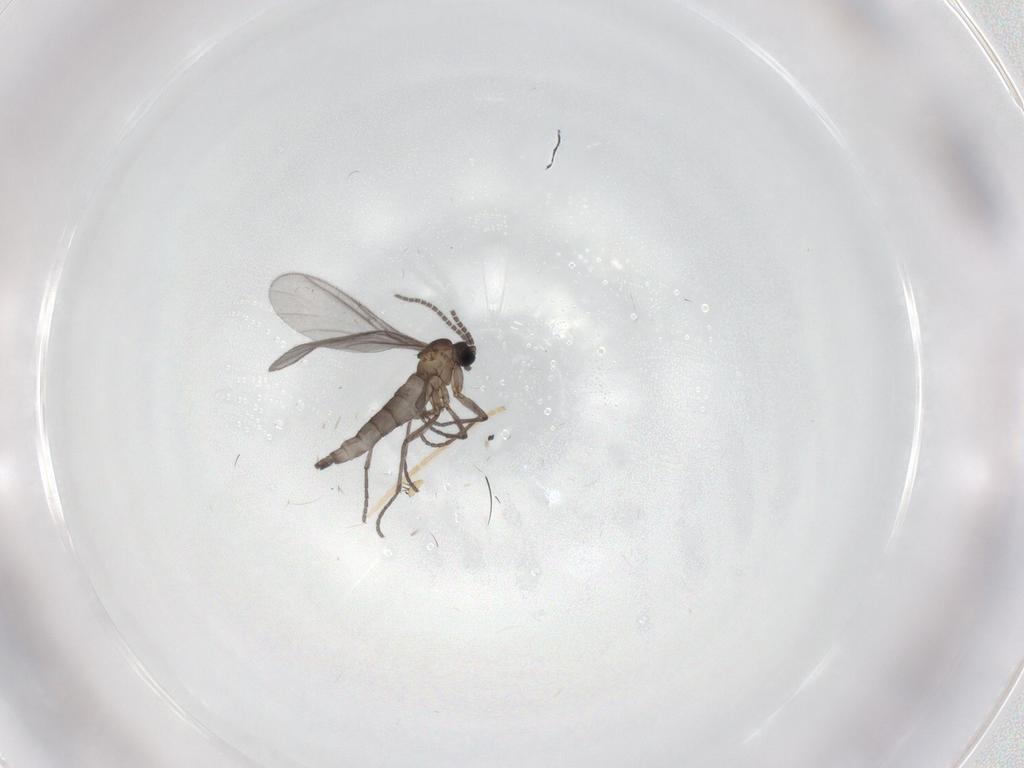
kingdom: Animalia
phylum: Arthropoda
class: Insecta
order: Diptera
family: Sciaridae
